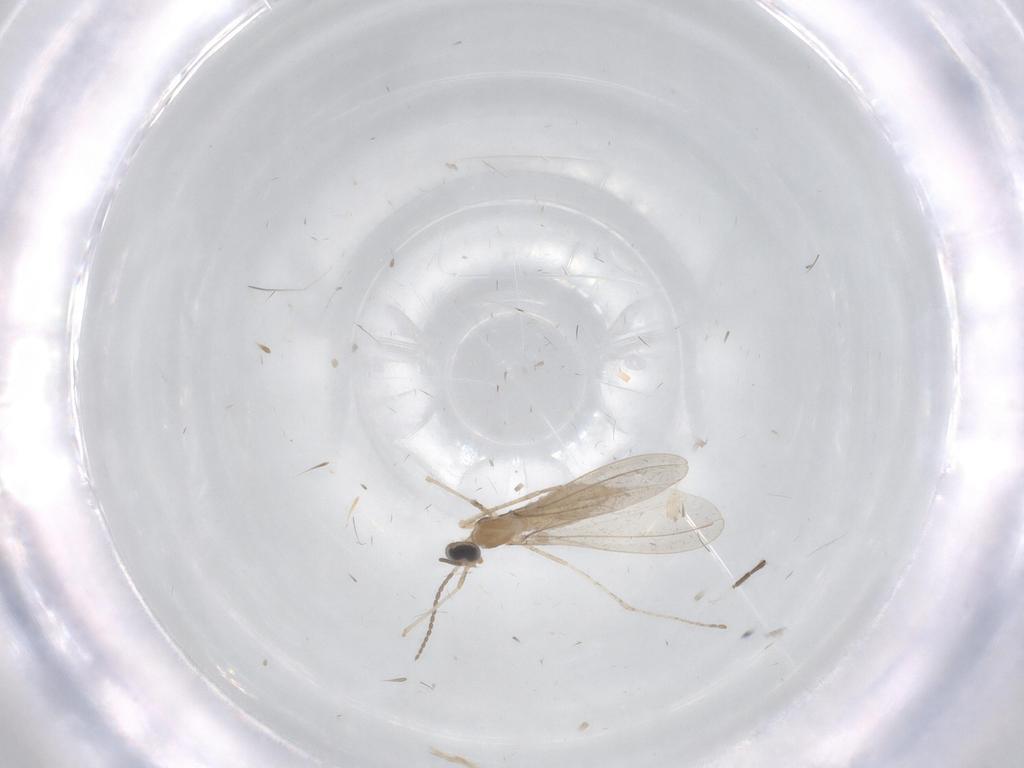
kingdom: Animalia
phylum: Arthropoda
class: Insecta
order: Diptera
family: Cecidomyiidae
